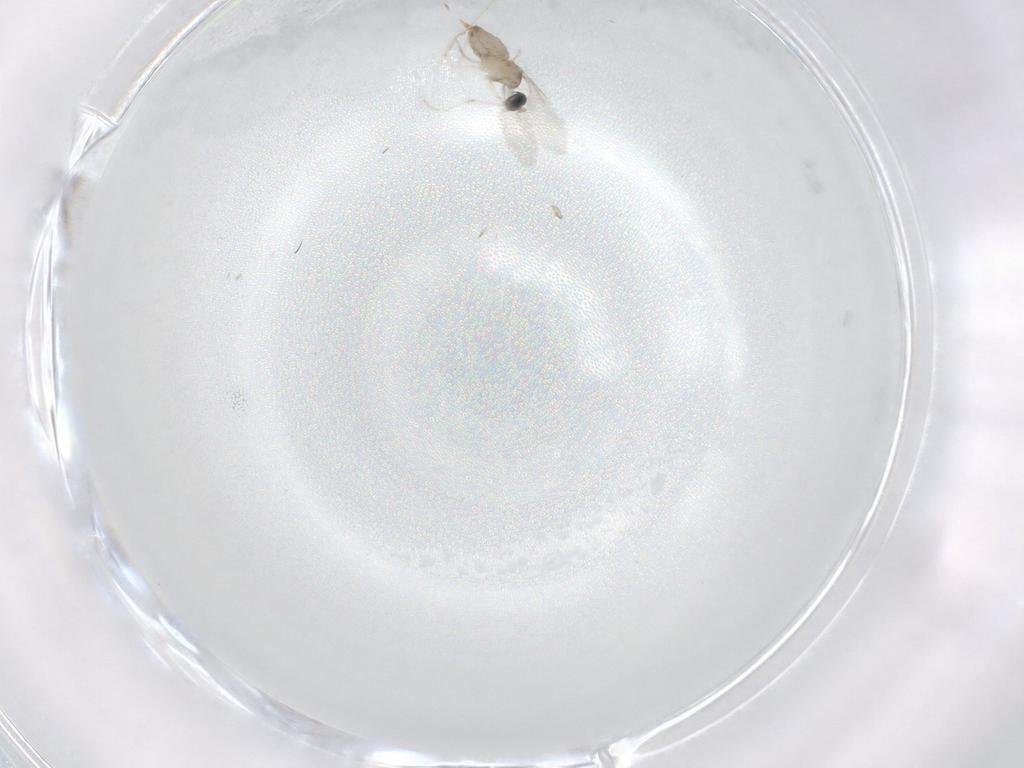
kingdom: Animalia
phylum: Arthropoda
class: Insecta
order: Diptera
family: Cecidomyiidae
